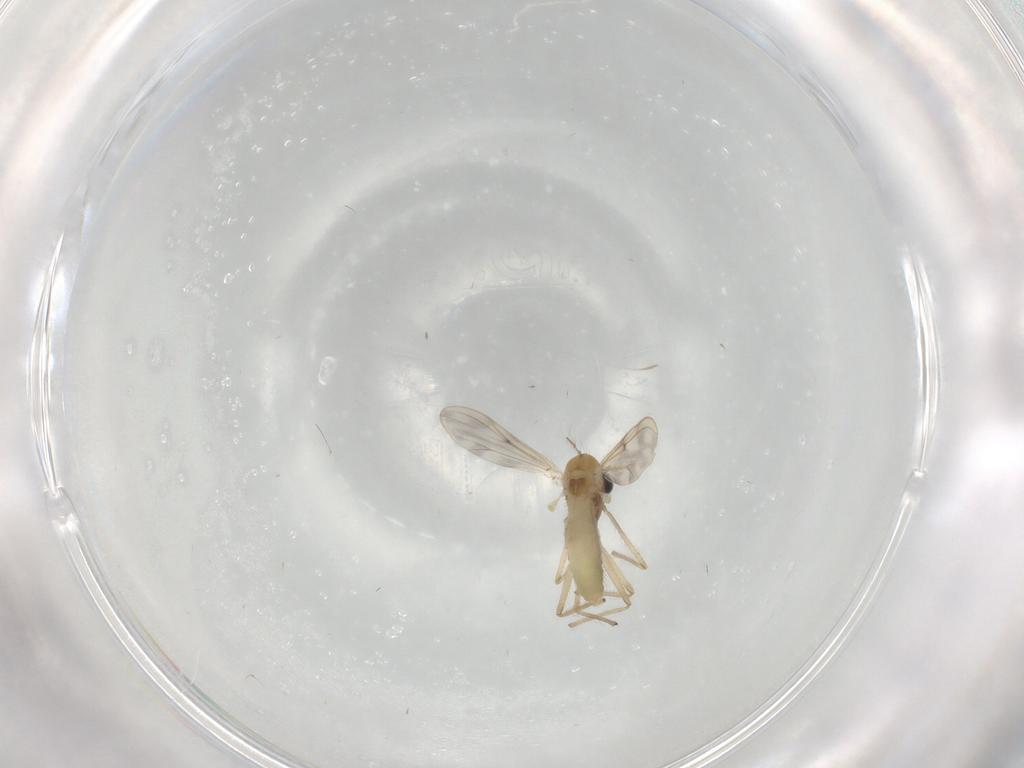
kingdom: Animalia
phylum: Arthropoda
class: Insecta
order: Diptera
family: Chironomidae
